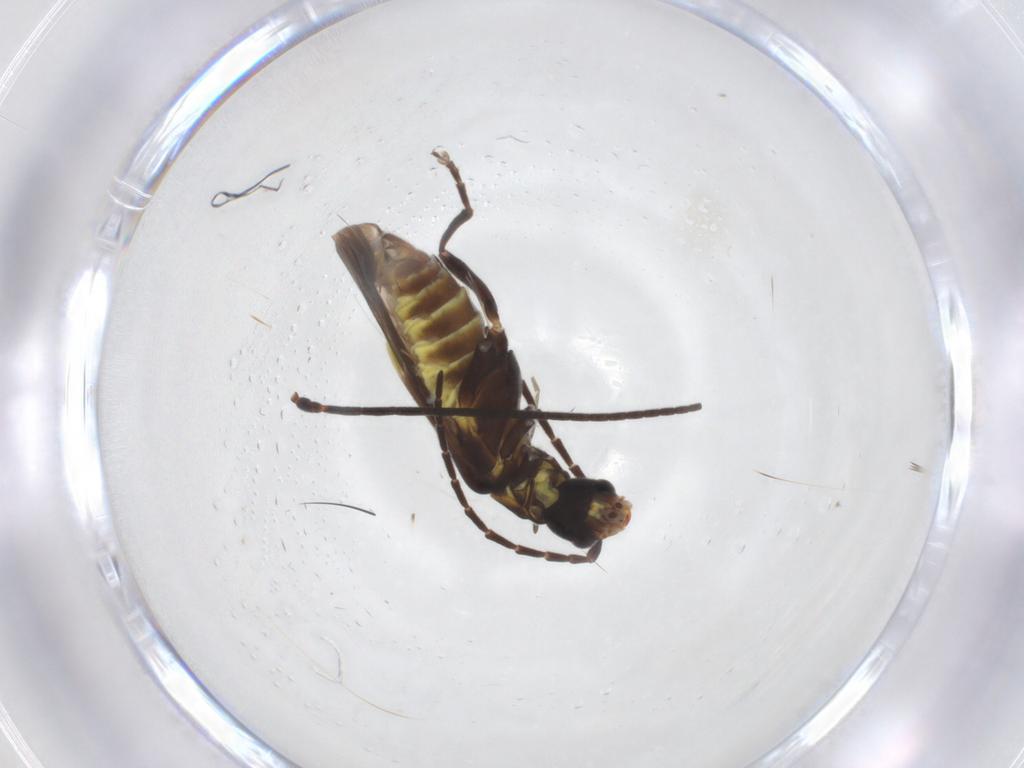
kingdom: Animalia
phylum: Arthropoda
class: Insecta
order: Coleoptera
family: Cantharidae
